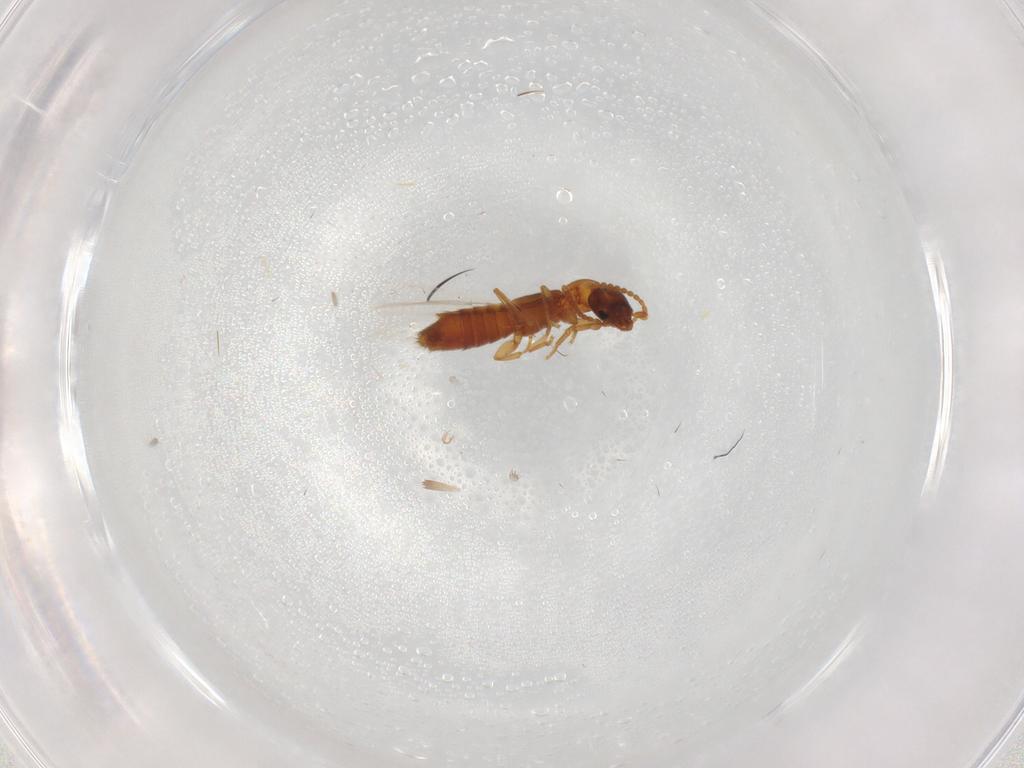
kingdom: Animalia
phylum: Arthropoda
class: Insecta
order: Coleoptera
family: Staphylinidae
